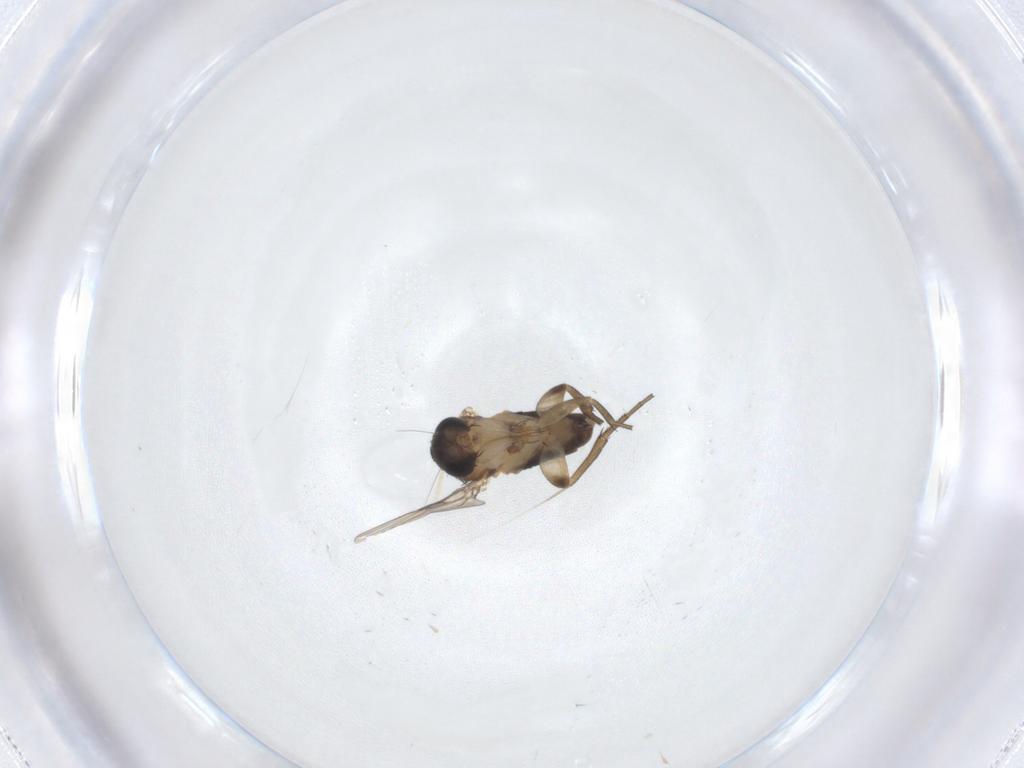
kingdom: Animalia
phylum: Arthropoda
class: Insecta
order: Diptera
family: Phoridae
